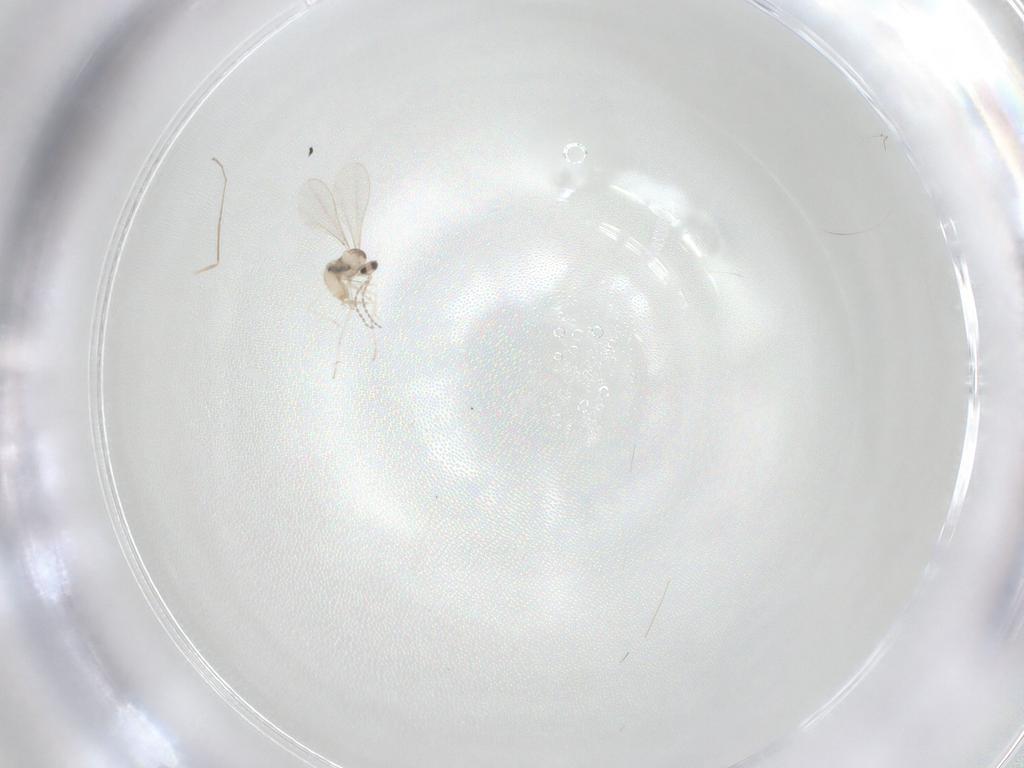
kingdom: Animalia
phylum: Arthropoda
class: Insecta
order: Diptera
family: Cecidomyiidae
